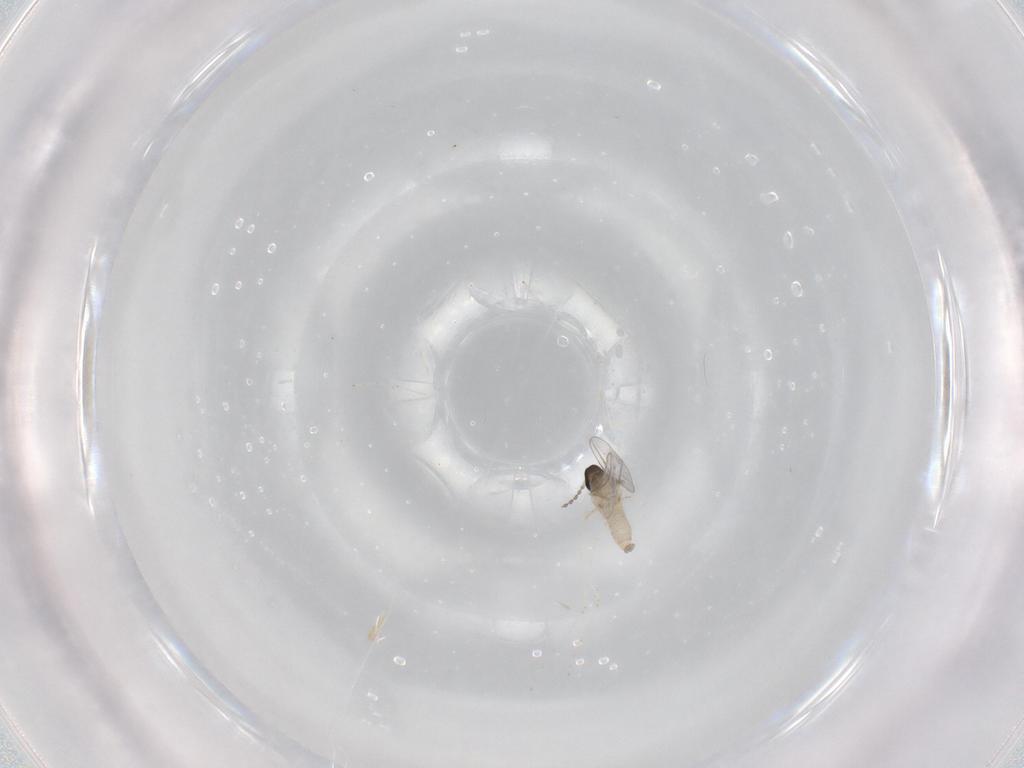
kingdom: Animalia
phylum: Arthropoda
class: Insecta
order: Diptera
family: Cecidomyiidae
